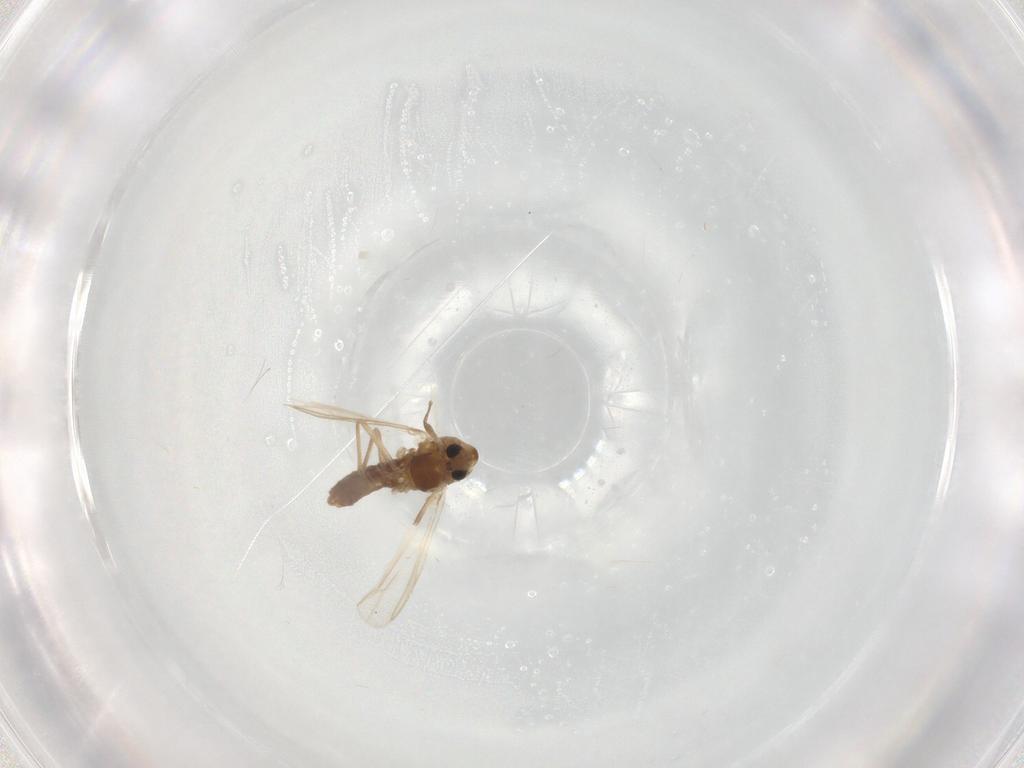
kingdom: Animalia
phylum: Arthropoda
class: Insecta
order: Diptera
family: Chironomidae
